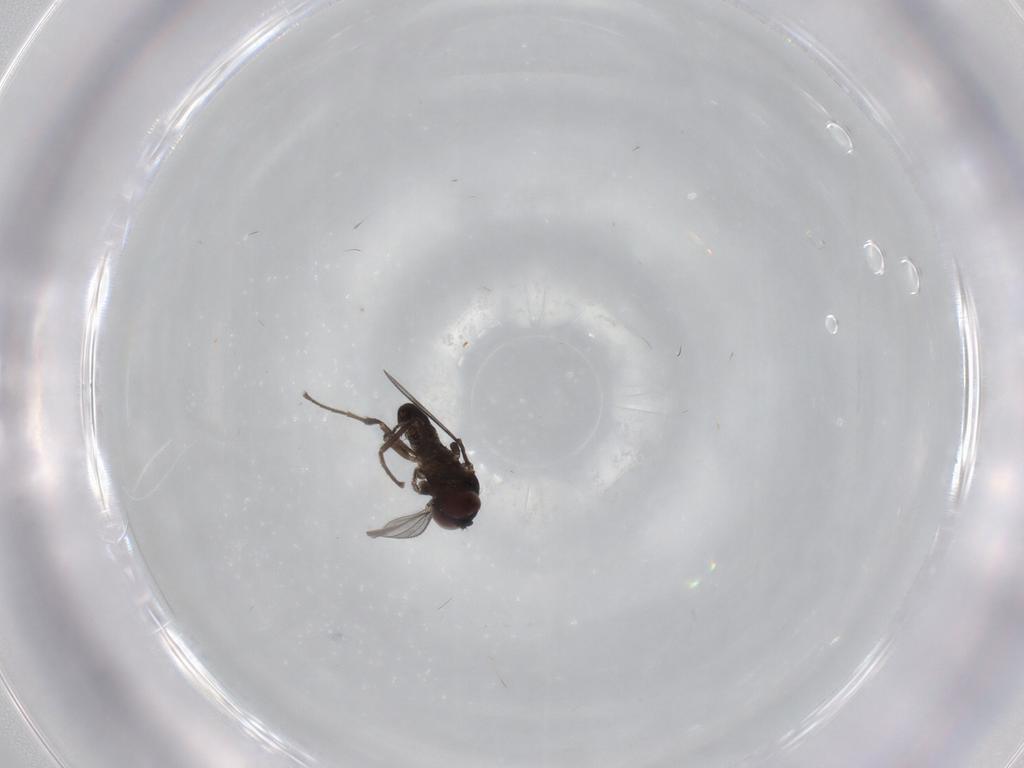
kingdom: Animalia
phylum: Arthropoda
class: Insecta
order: Diptera
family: Dolichopodidae
